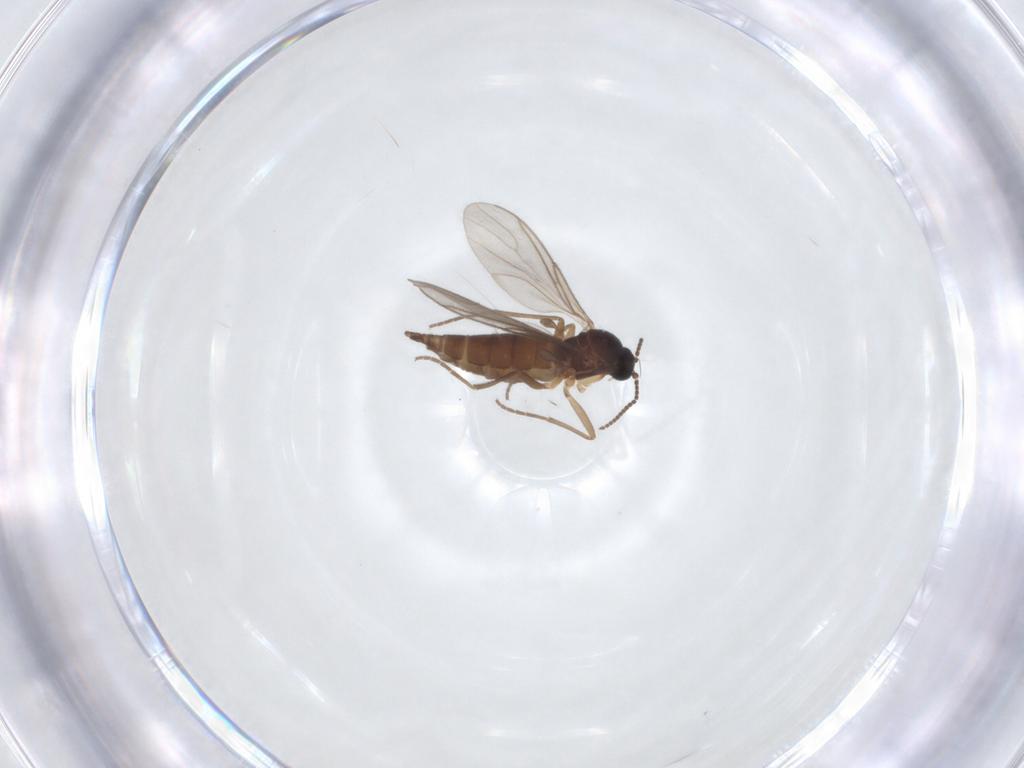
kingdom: Animalia
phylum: Arthropoda
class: Insecta
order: Diptera
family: Sciaridae
